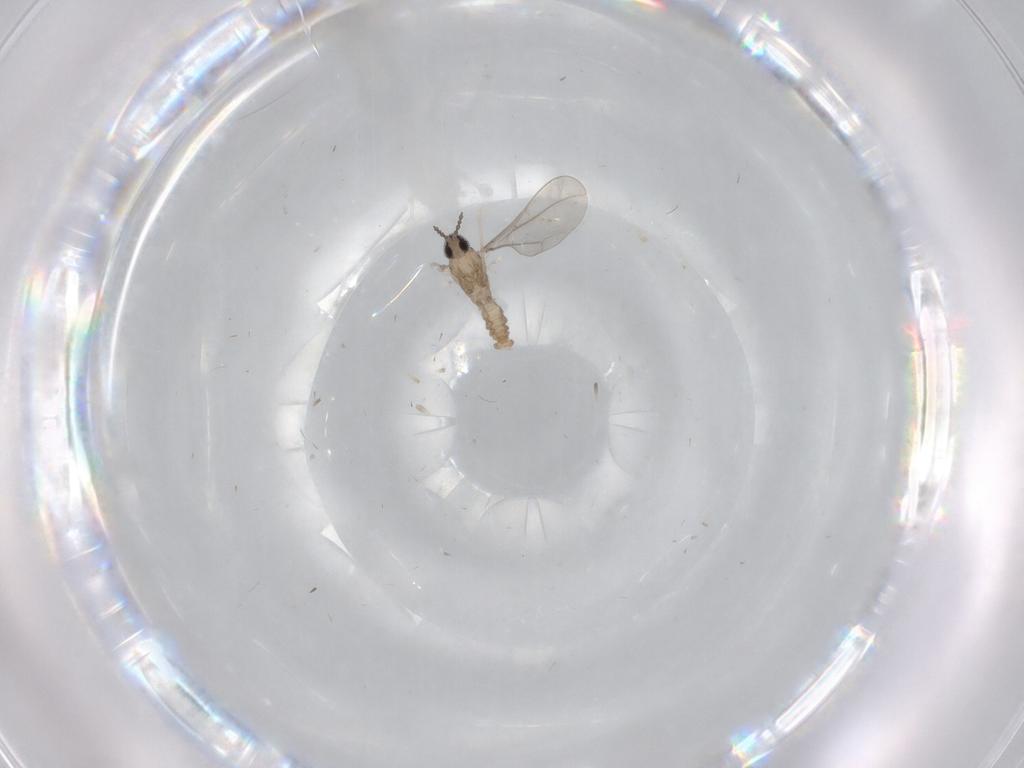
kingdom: Animalia
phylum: Arthropoda
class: Insecta
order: Diptera
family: Cecidomyiidae
